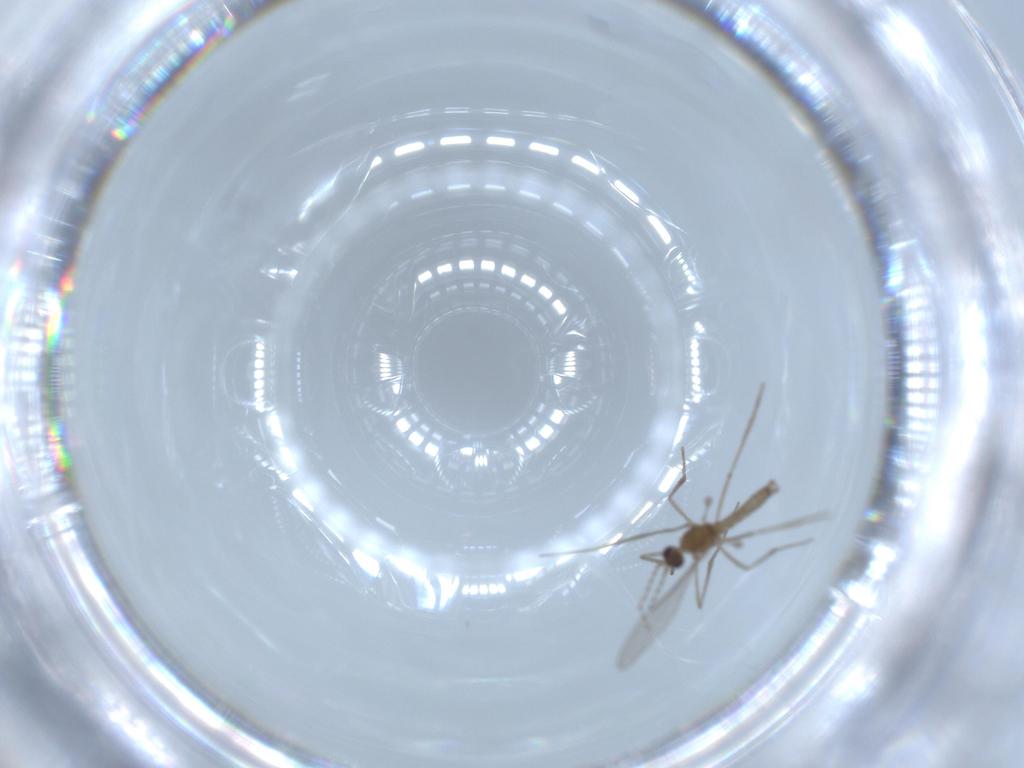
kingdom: Animalia
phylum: Arthropoda
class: Insecta
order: Diptera
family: Cecidomyiidae
